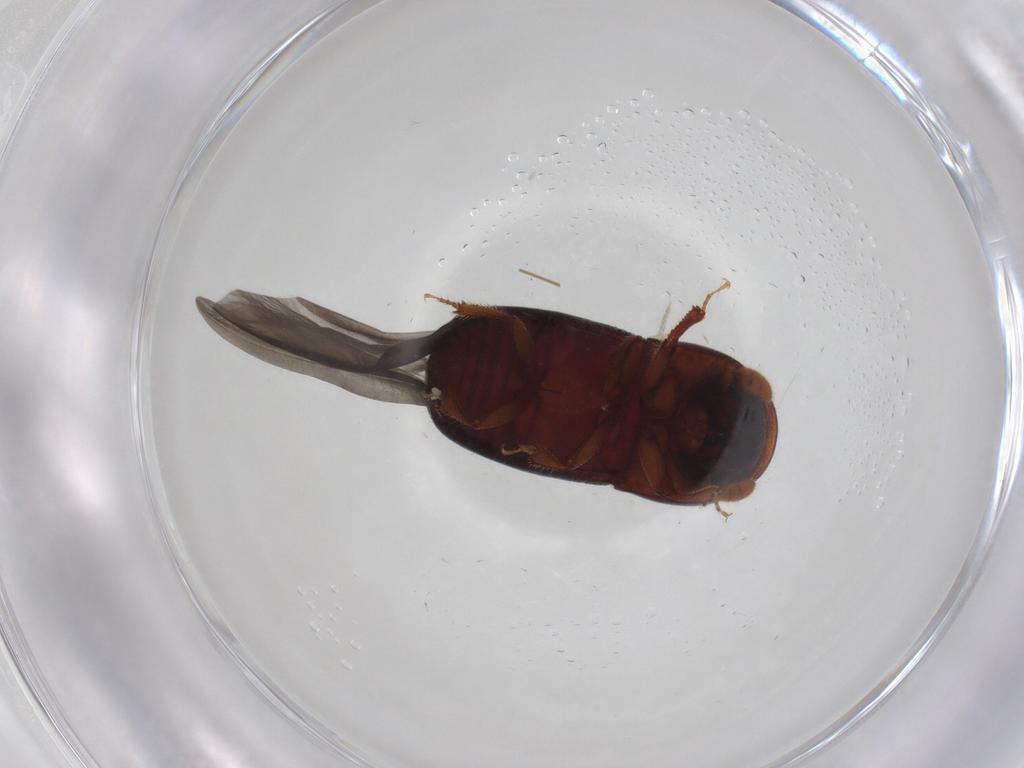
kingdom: Animalia
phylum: Arthropoda
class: Insecta
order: Coleoptera
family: Curculionidae
